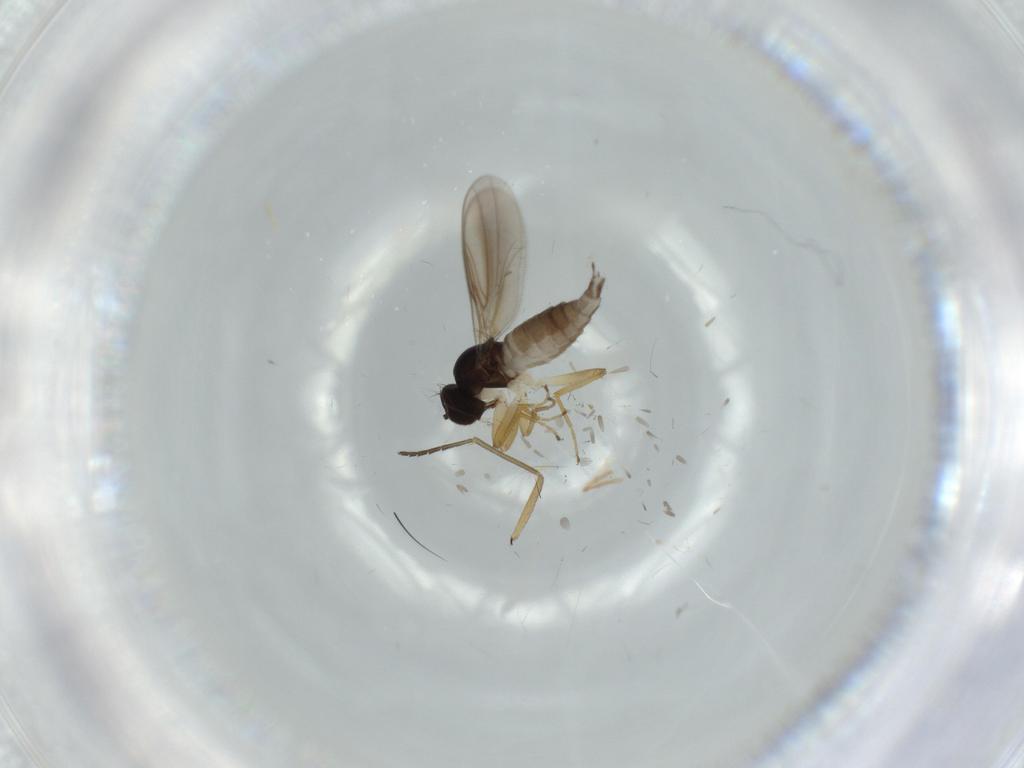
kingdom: Animalia
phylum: Arthropoda
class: Insecta
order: Diptera
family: Hybotidae
